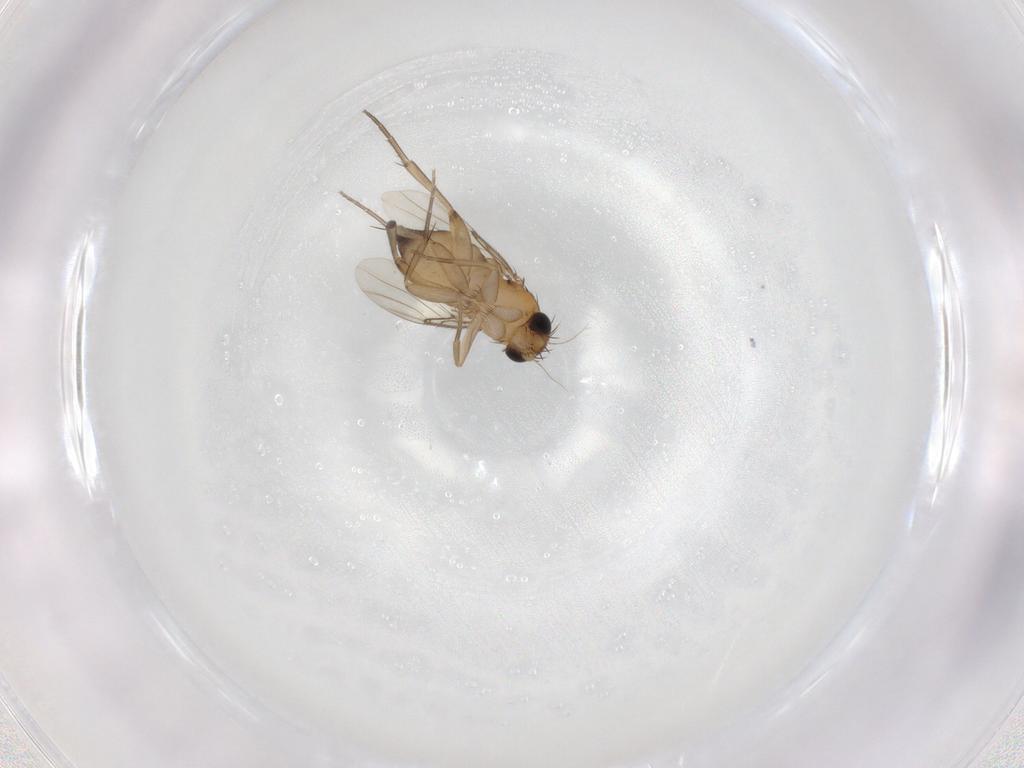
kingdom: Animalia
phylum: Arthropoda
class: Insecta
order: Diptera
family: Phoridae
